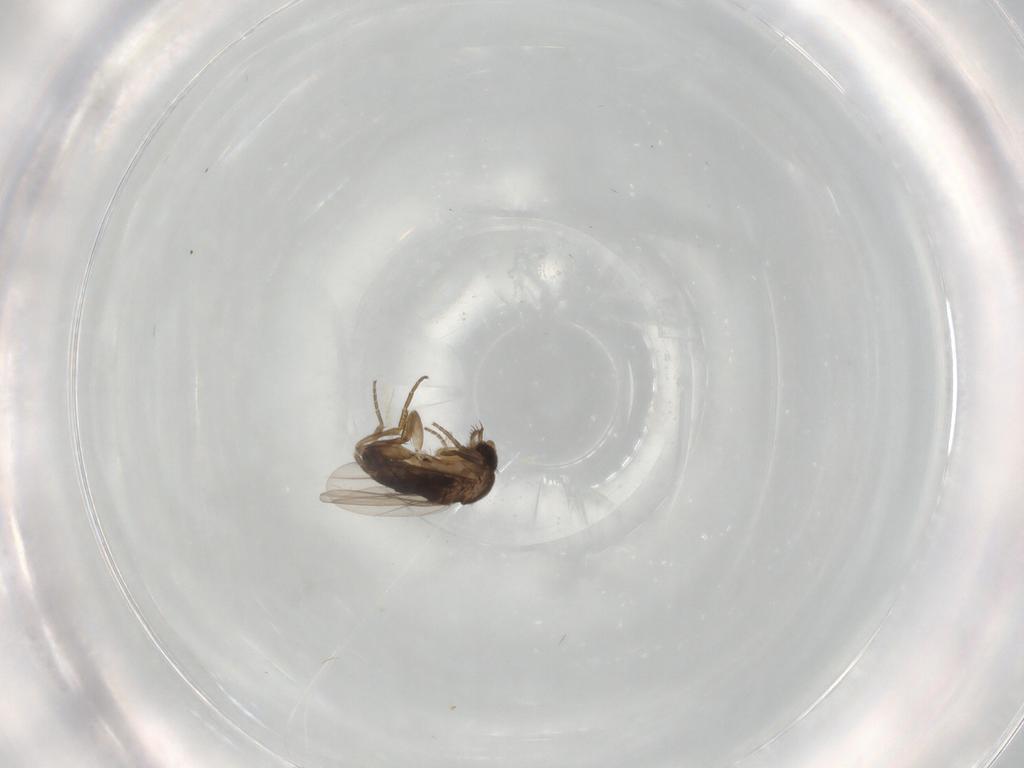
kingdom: Animalia
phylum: Arthropoda
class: Insecta
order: Diptera
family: Cecidomyiidae
